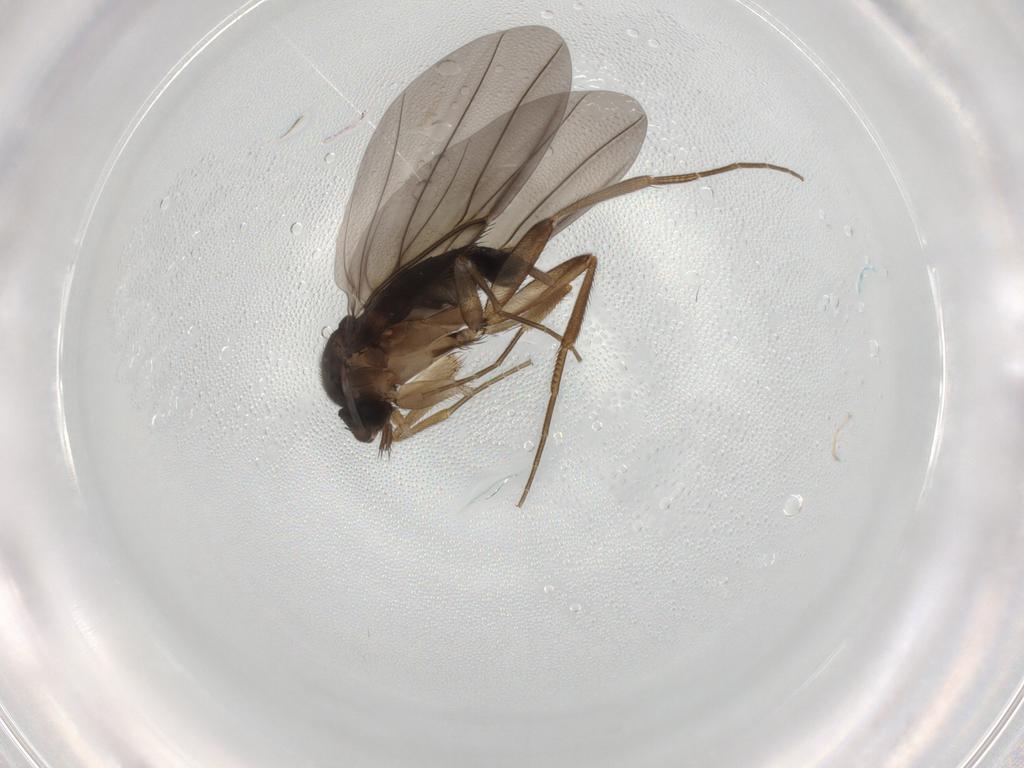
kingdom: Animalia
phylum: Arthropoda
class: Insecta
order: Diptera
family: Phoridae
